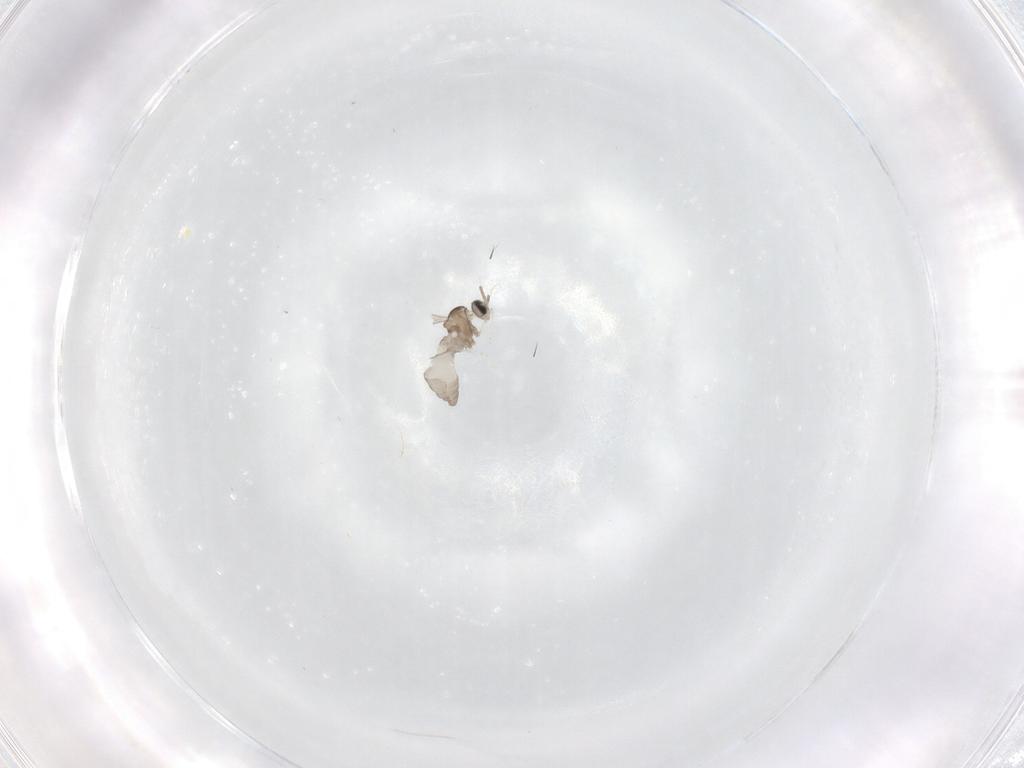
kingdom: Animalia
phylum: Arthropoda
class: Insecta
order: Diptera
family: Cecidomyiidae
